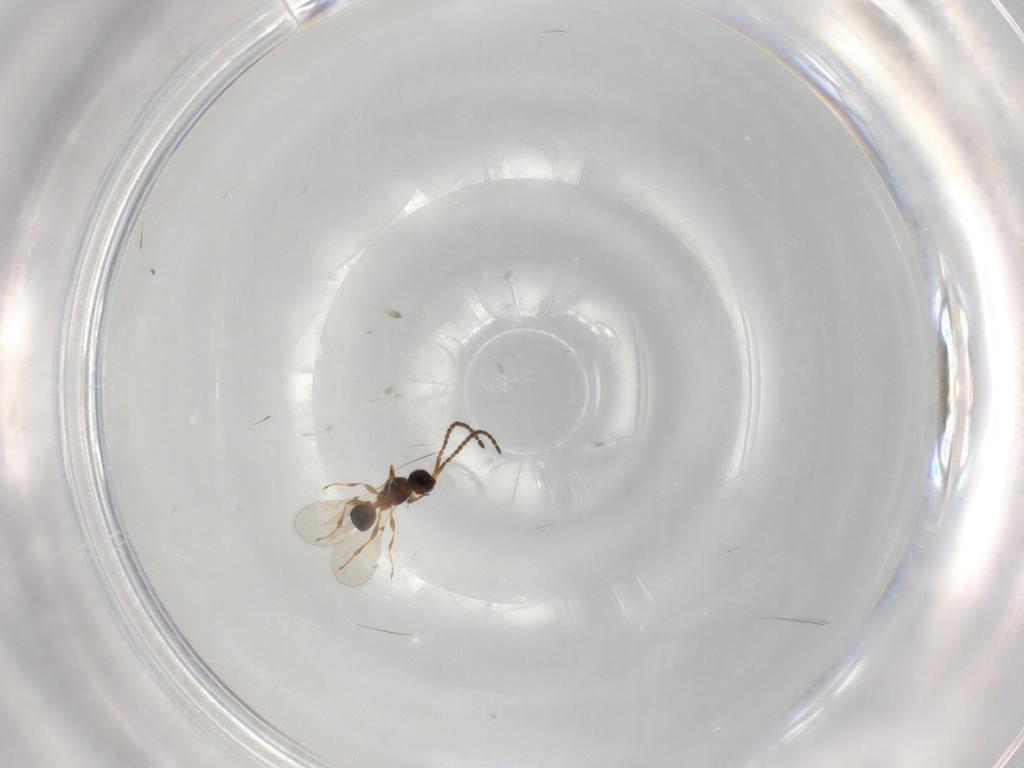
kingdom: Animalia
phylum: Arthropoda
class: Insecta
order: Hymenoptera
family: Diapriidae
